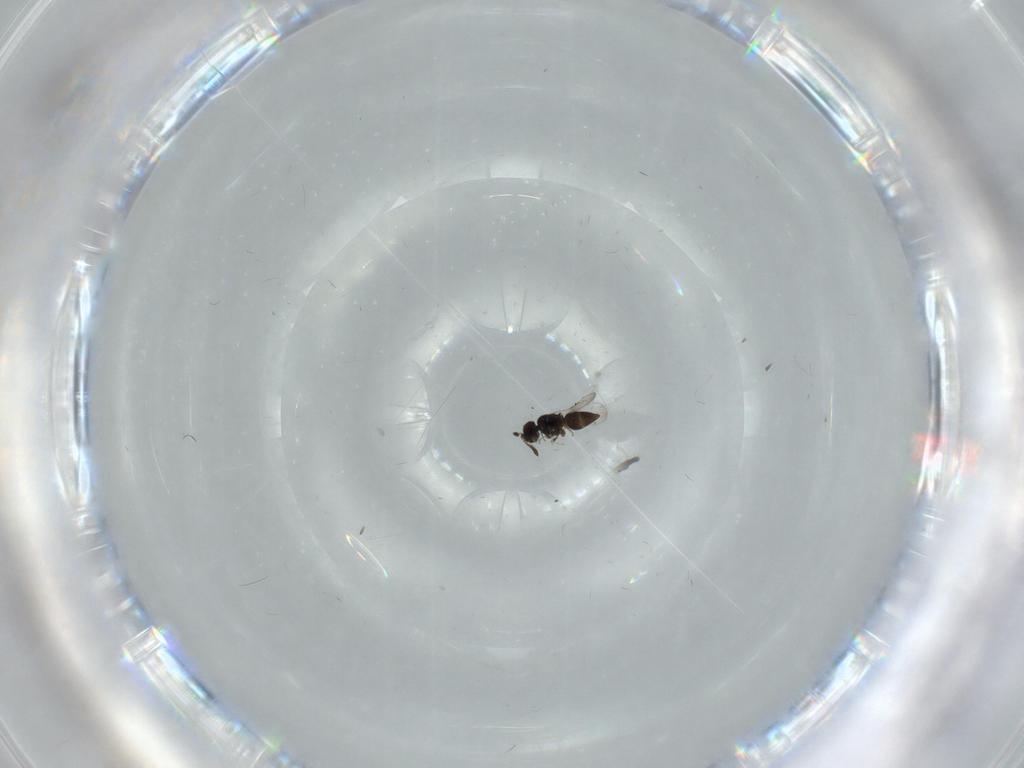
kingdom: Animalia
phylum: Arthropoda
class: Insecta
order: Hymenoptera
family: Ceraphronidae
